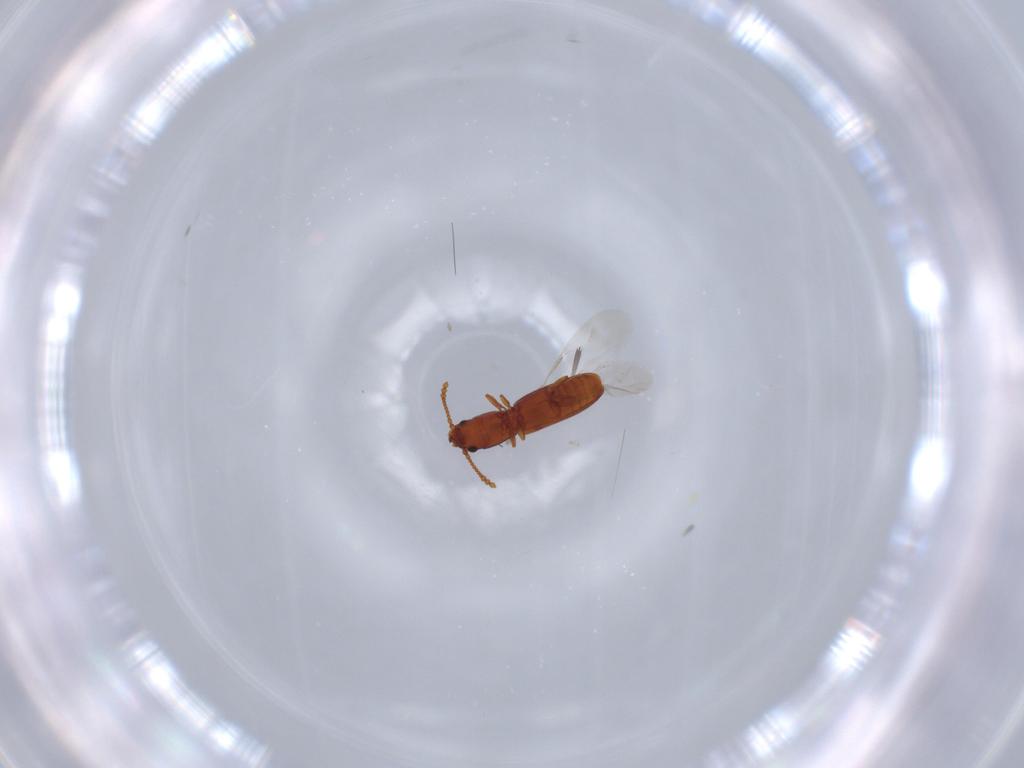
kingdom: Animalia
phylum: Arthropoda
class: Insecta
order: Coleoptera
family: Laemophloeidae
